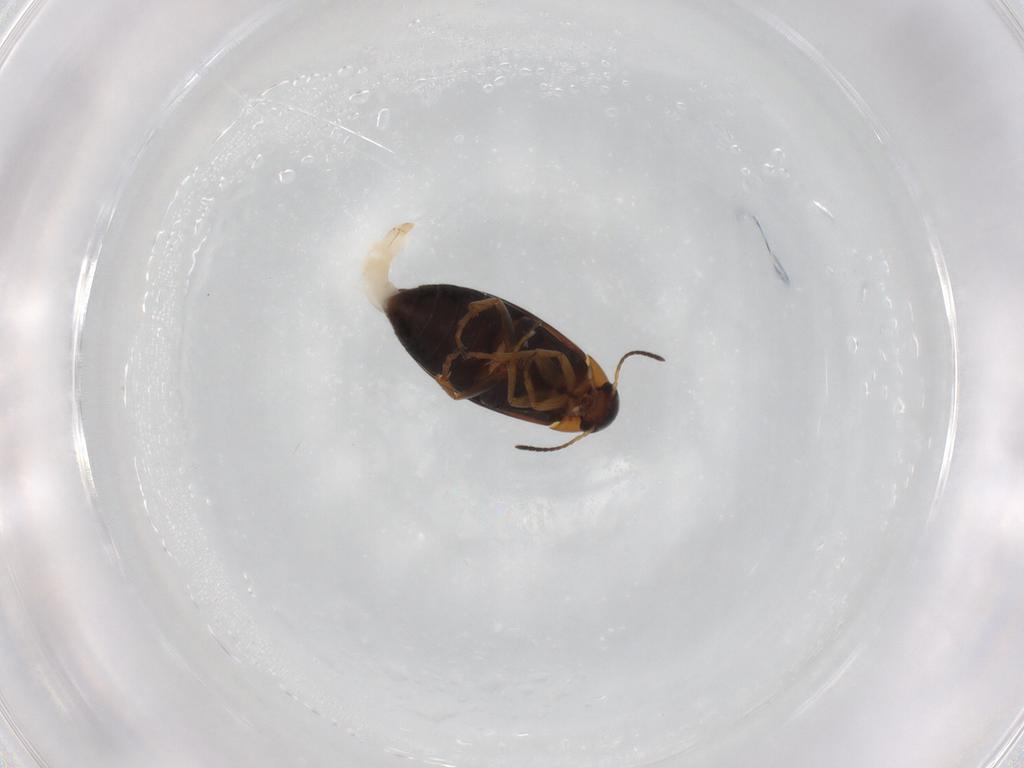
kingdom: Animalia
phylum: Arthropoda
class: Insecta
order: Coleoptera
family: Scraptiidae
